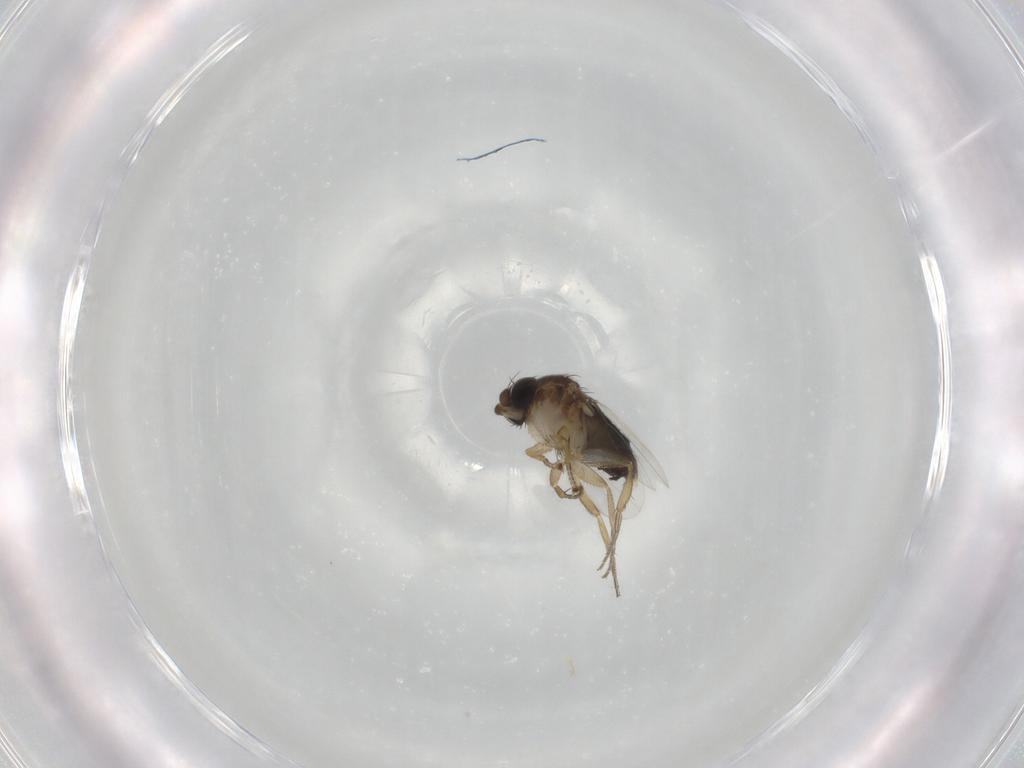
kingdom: Animalia
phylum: Arthropoda
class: Insecta
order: Diptera
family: Phoridae
